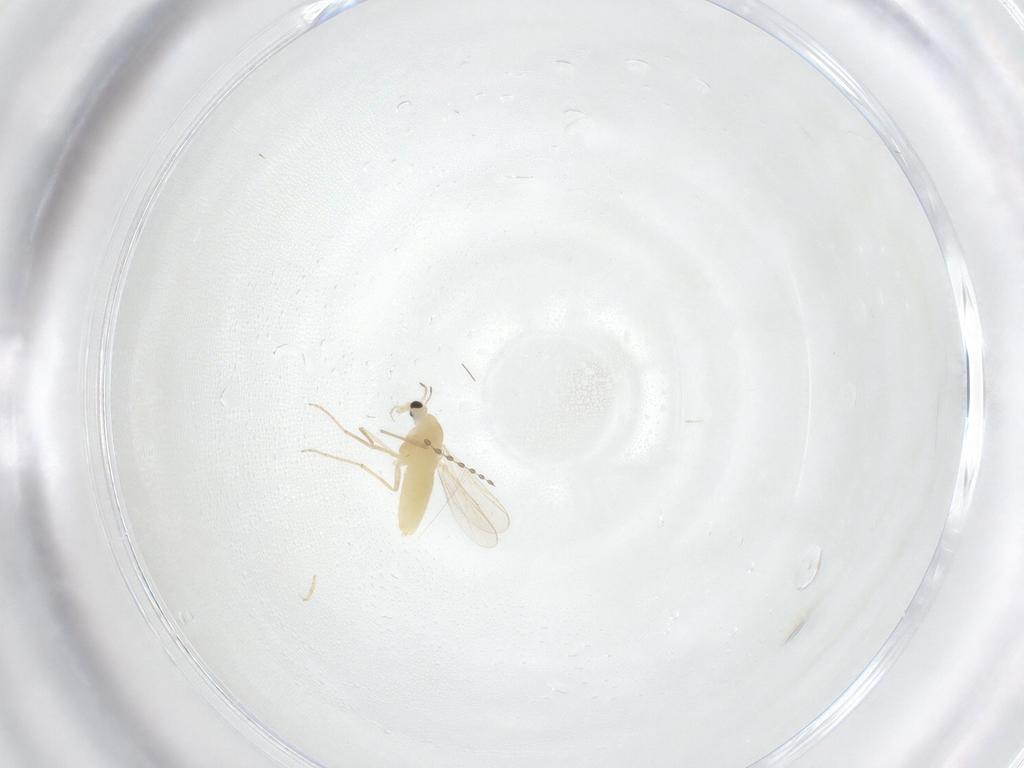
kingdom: Animalia
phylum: Arthropoda
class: Insecta
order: Diptera
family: Cecidomyiidae
